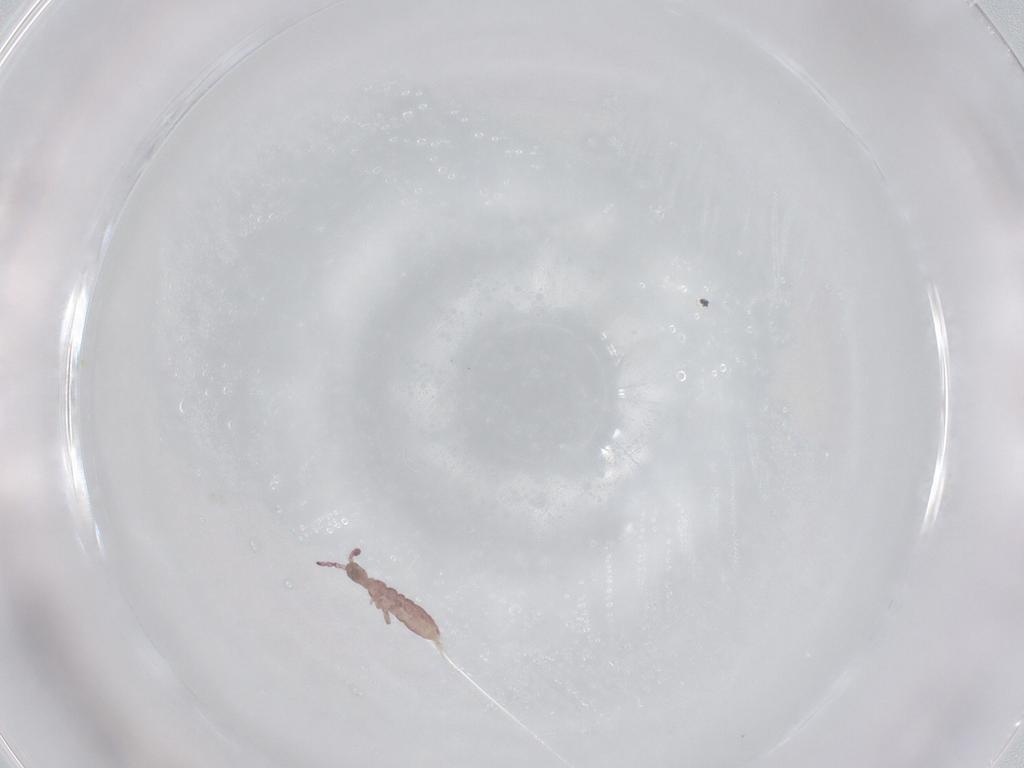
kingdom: Animalia
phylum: Arthropoda
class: Collembola
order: Entomobryomorpha
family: Isotomidae
